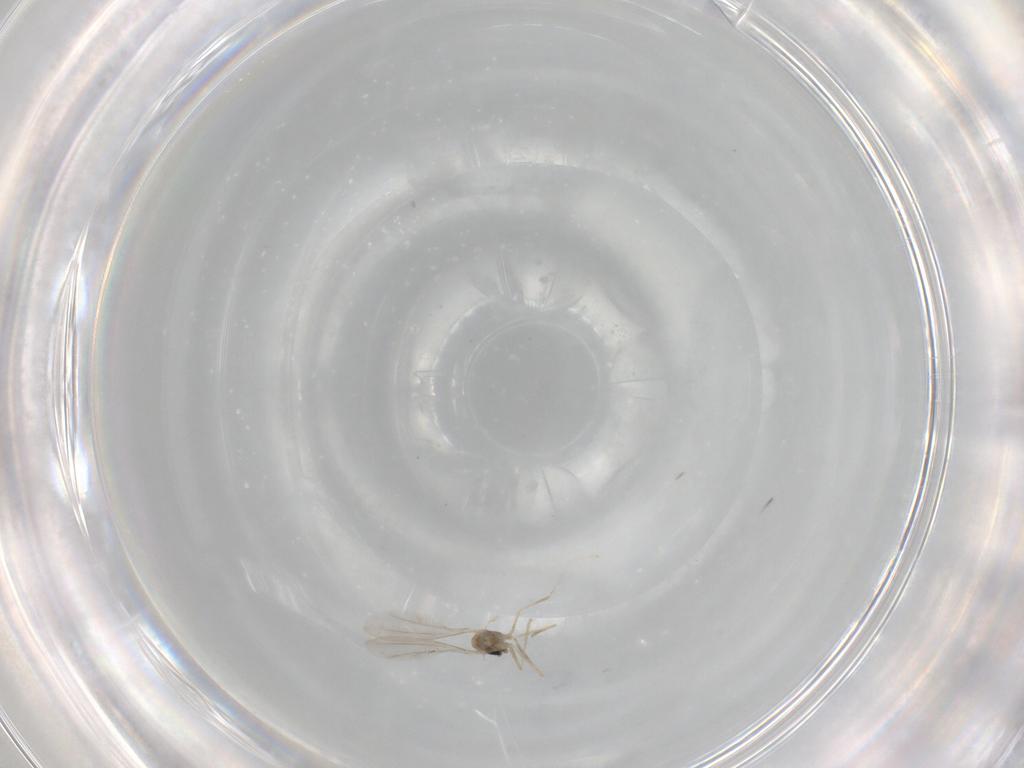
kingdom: Animalia
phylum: Arthropoda
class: Insecta
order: Diptera
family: Cecidomyiidae
